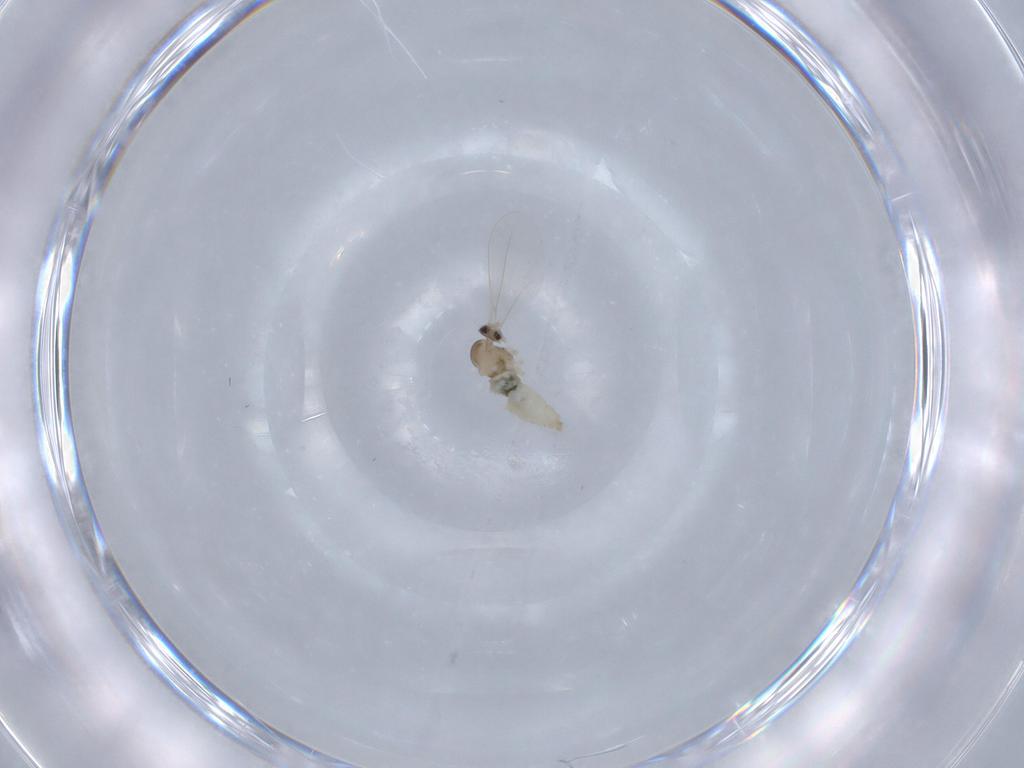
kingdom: Animalia
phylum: Arthropoda
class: Insecta
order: Diptera
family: Cecidomyiidae
